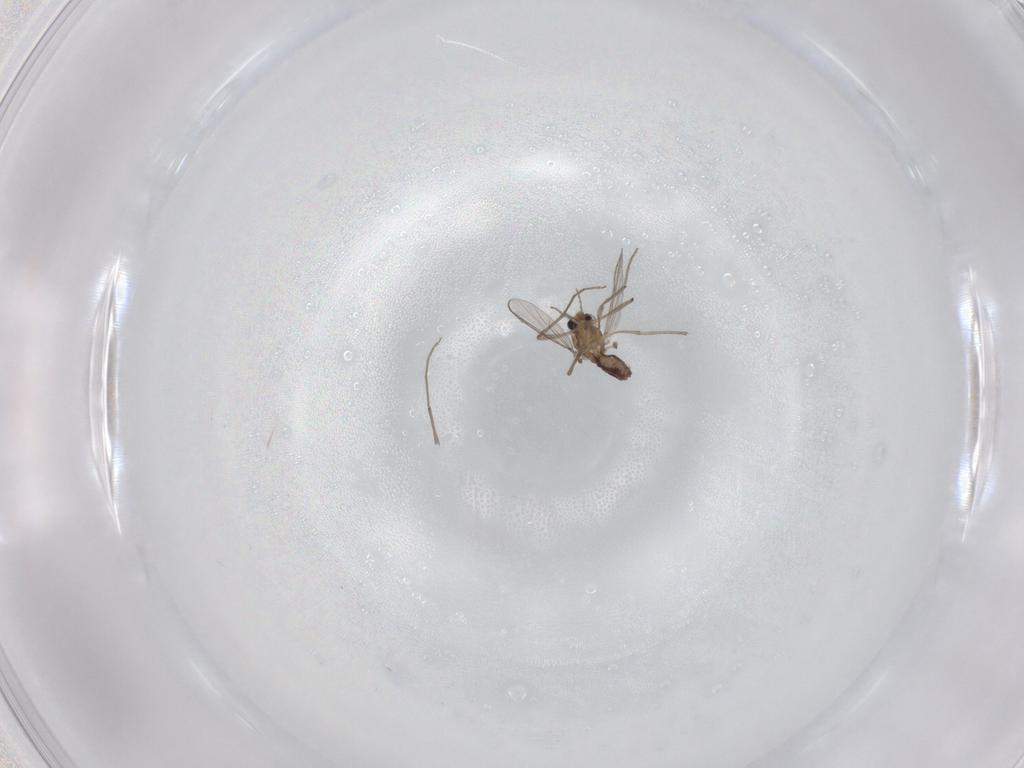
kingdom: Animalia
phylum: Arthropoda
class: Insecta
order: Diptera
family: Chironomidae
